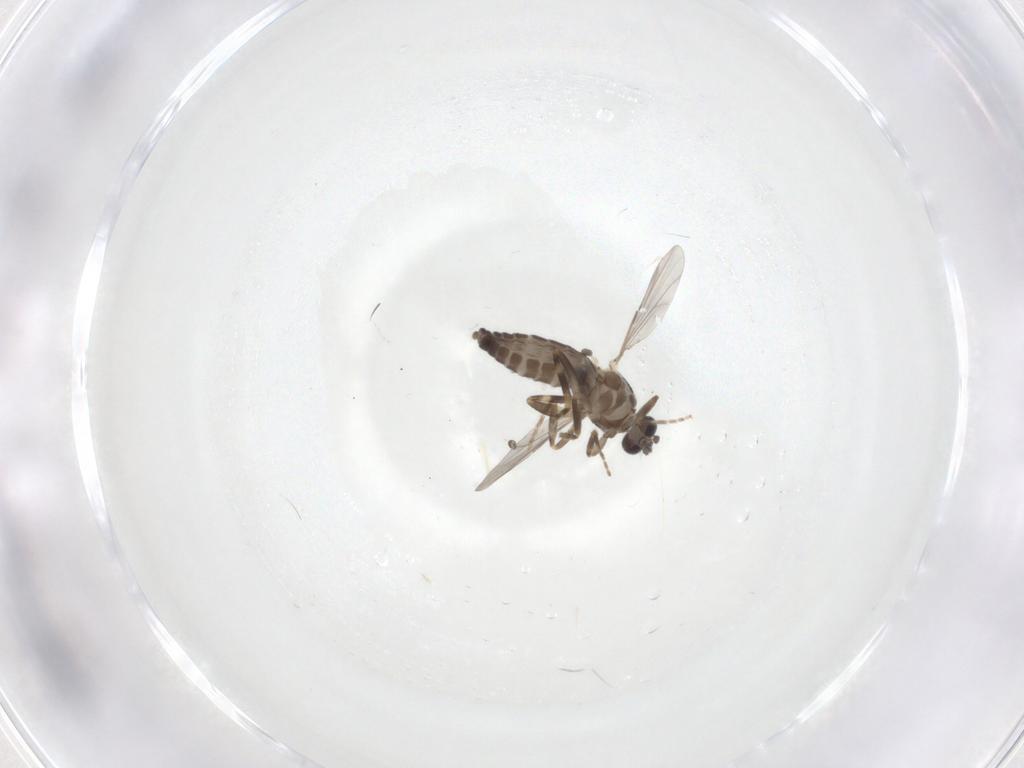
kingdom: Animalia
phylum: Arthropoda
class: Insecta
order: Diptera
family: Ceratopogonidae
